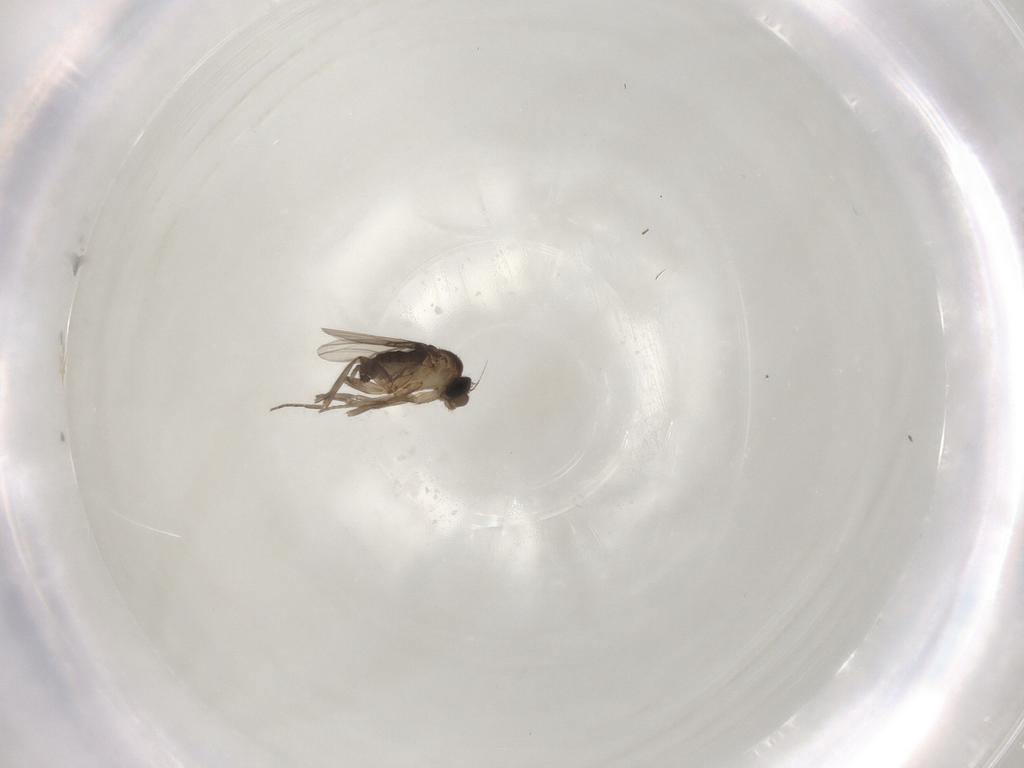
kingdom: Animalia
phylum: Arthropoda
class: Insecta
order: Diptera
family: Phoridae
